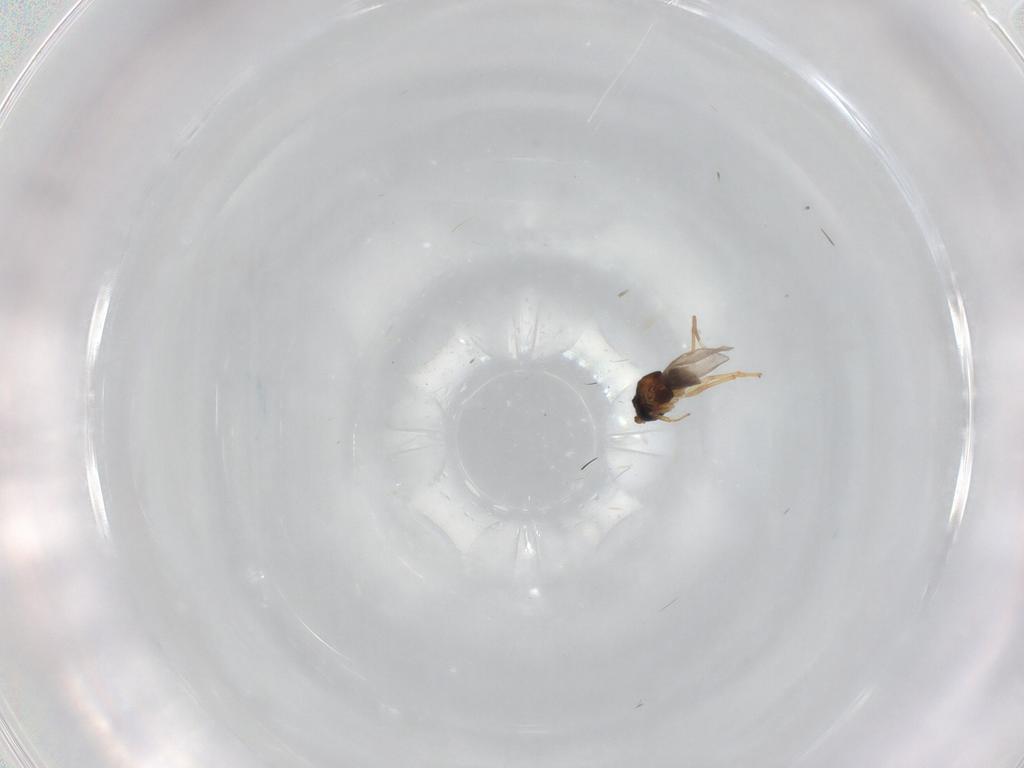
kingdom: Animalia
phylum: Arthropoda
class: Insecta
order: Diptera
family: Chironomidae
